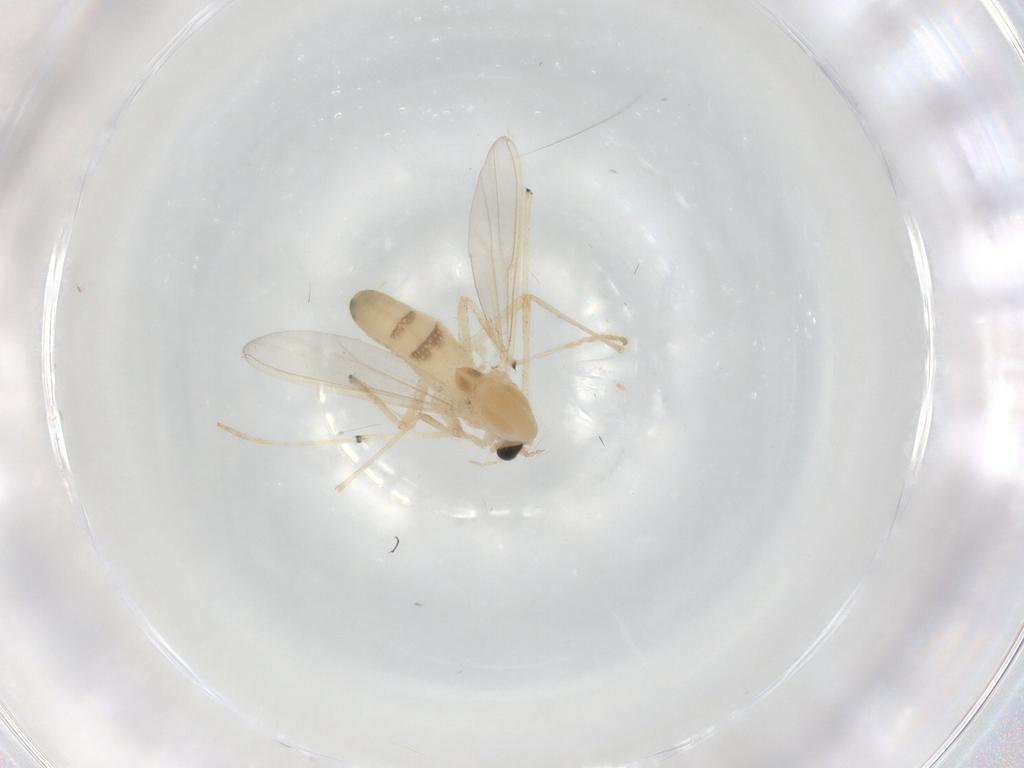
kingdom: Animalia
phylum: Arthropoda
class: Insecta
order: Diptera
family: Chironomidae
